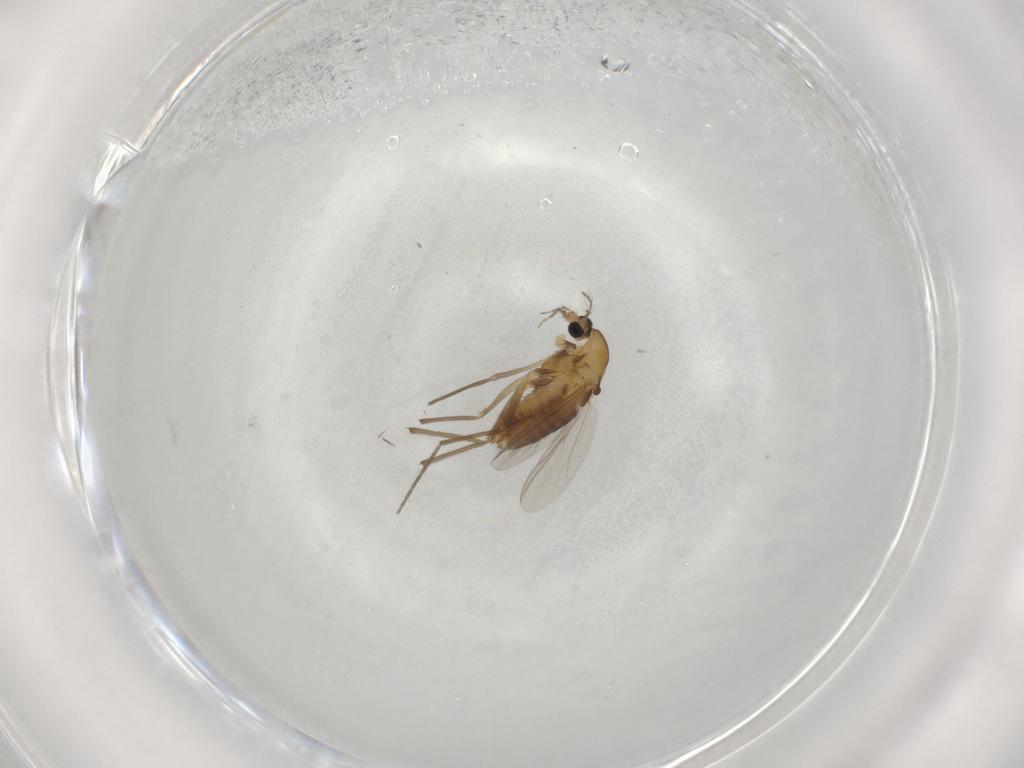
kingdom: Animalia
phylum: Arthropoda
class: Insecta
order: Diptera
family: Chironomidae
